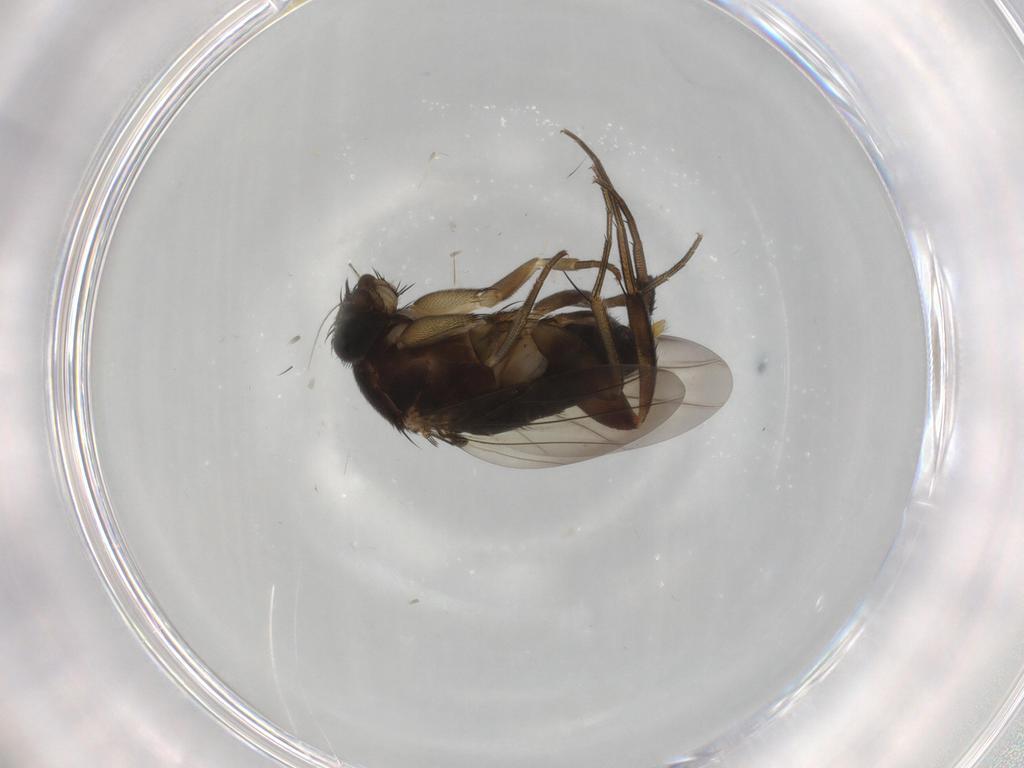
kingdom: Animalia
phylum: Arthropoda
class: Insecta
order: Diptera
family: Phoridae
